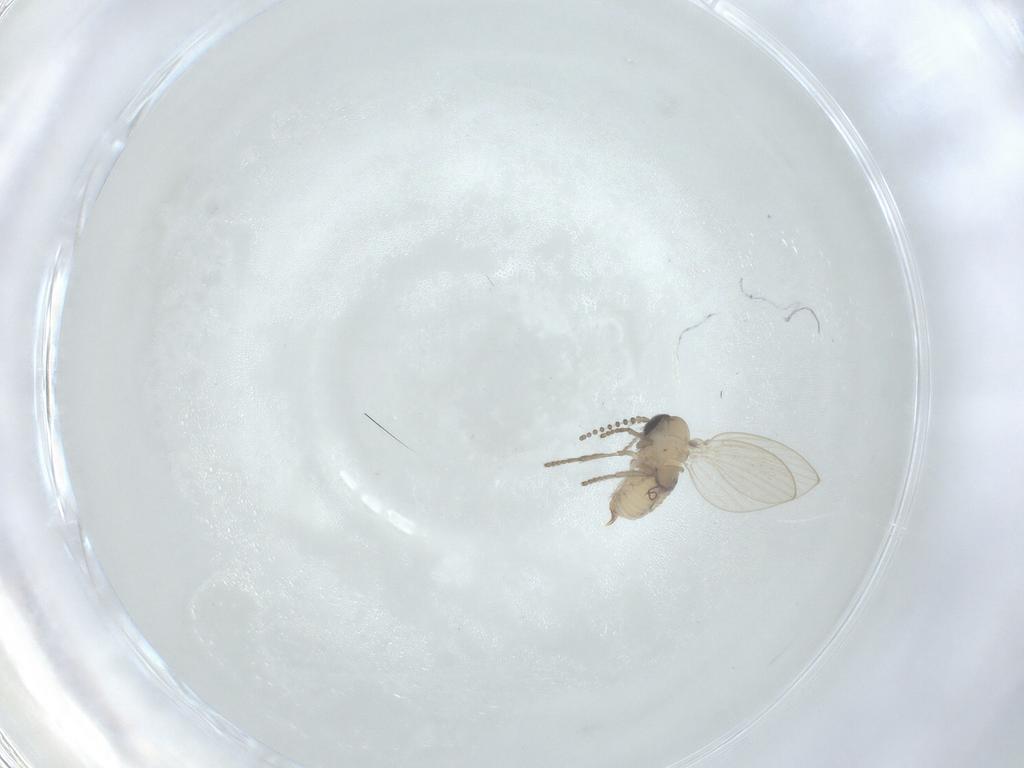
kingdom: Animalia
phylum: Arthropoda
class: Insecta
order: Diptera
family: Psychodidae
